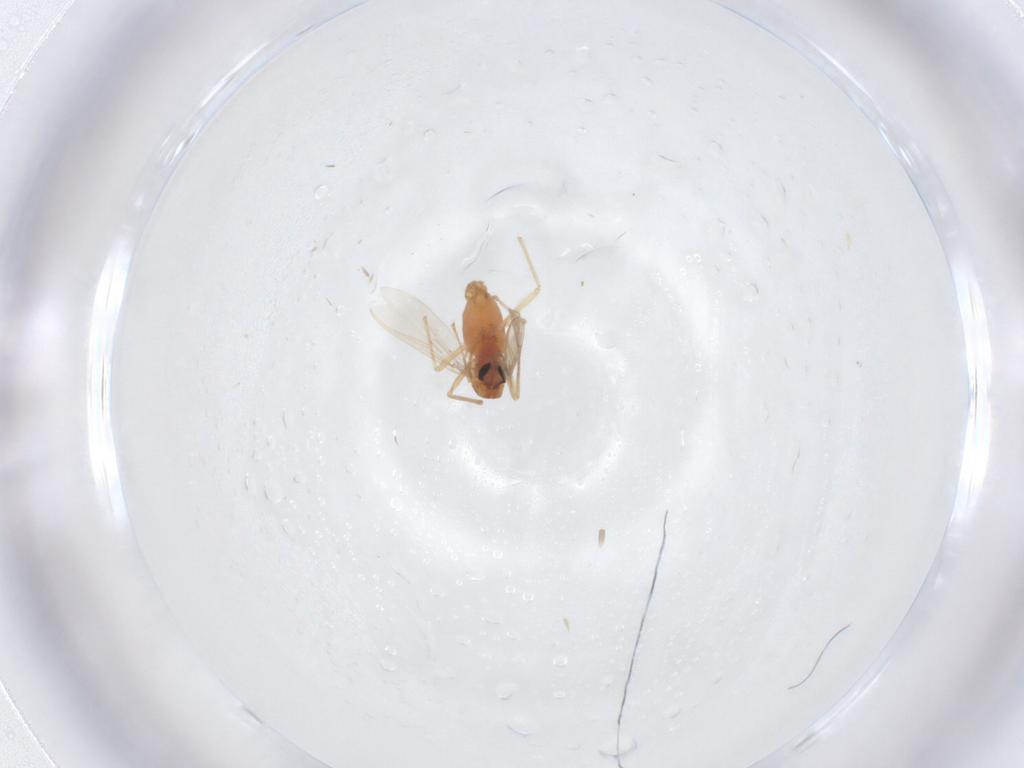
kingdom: Animalia
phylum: Arthropoda
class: Insecta
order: Diptera
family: Chironomidae
